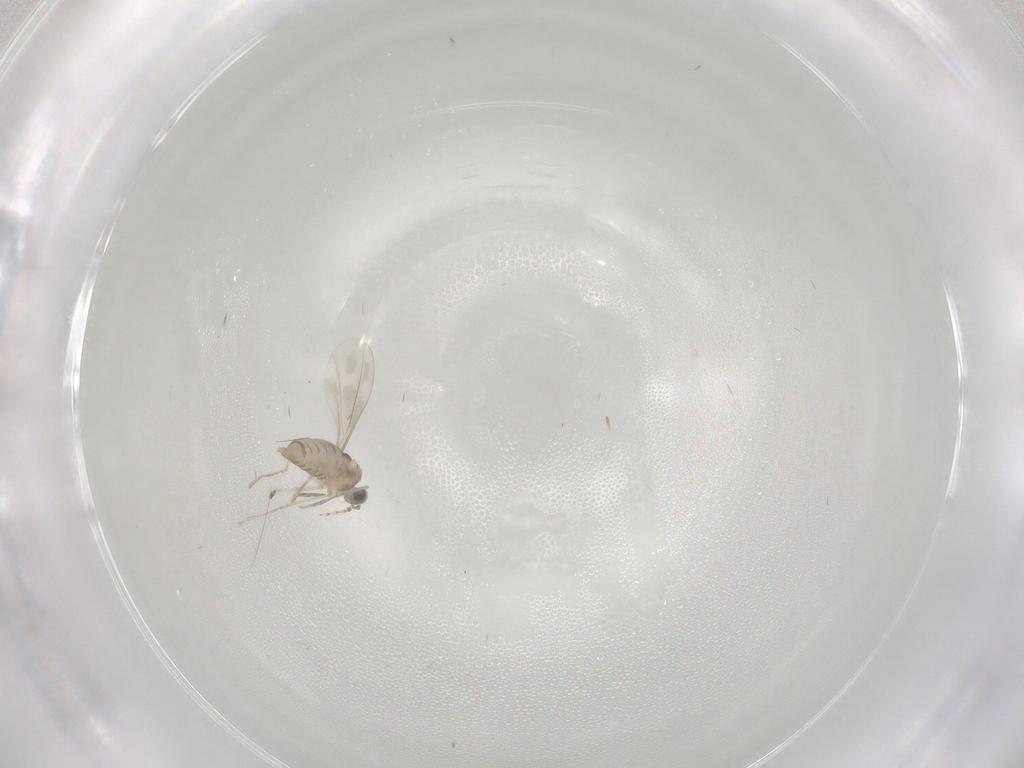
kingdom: Animalia
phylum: Arthropoda
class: Insecta
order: Diptera
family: Cecidomyiidae
